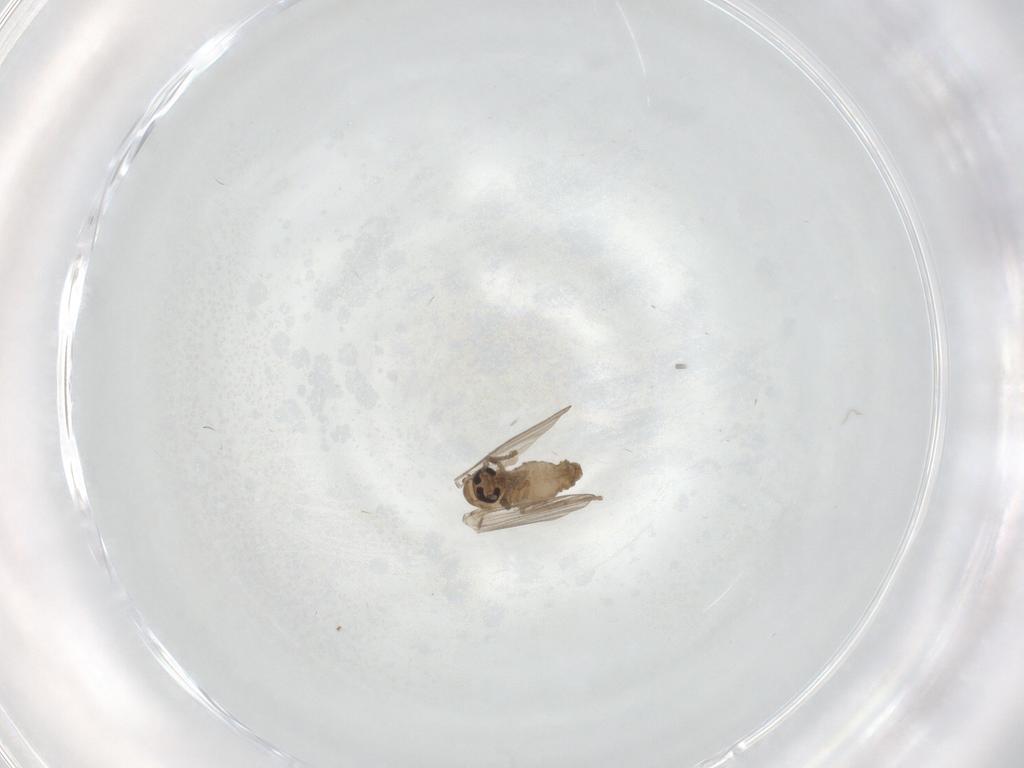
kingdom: Animalia
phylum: Arthropoda
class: Insecta
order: Diptera
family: Psychodidae
